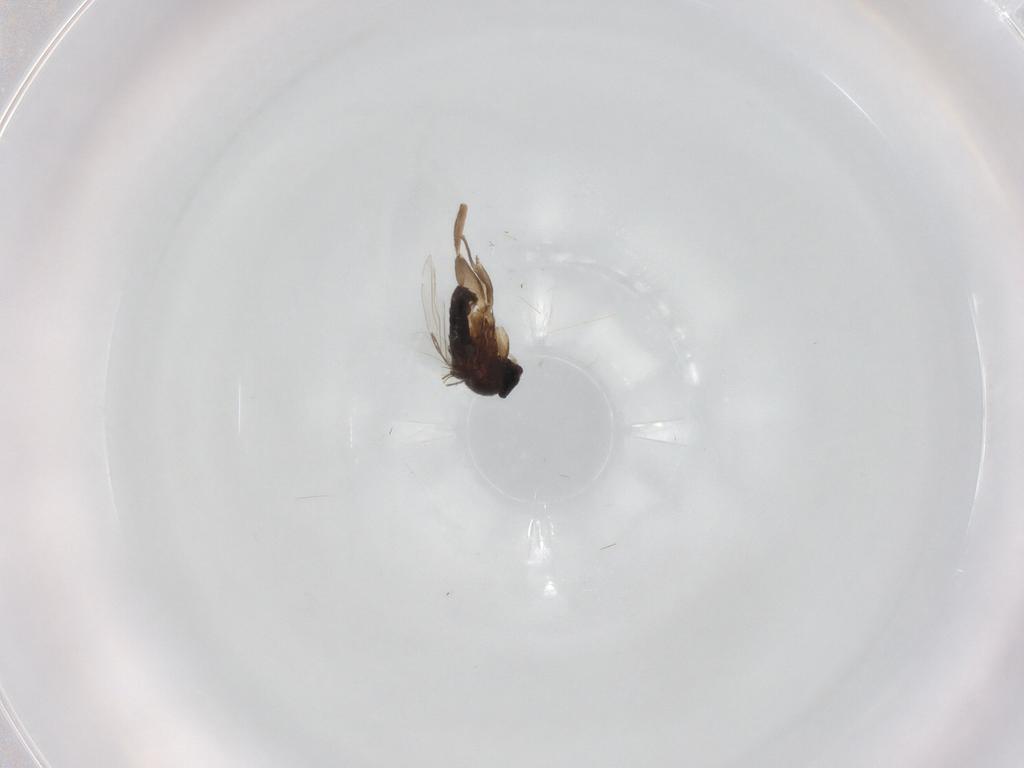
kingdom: Animalia
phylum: Arthropoda
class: Insecta
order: Diptera
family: Phoridae
